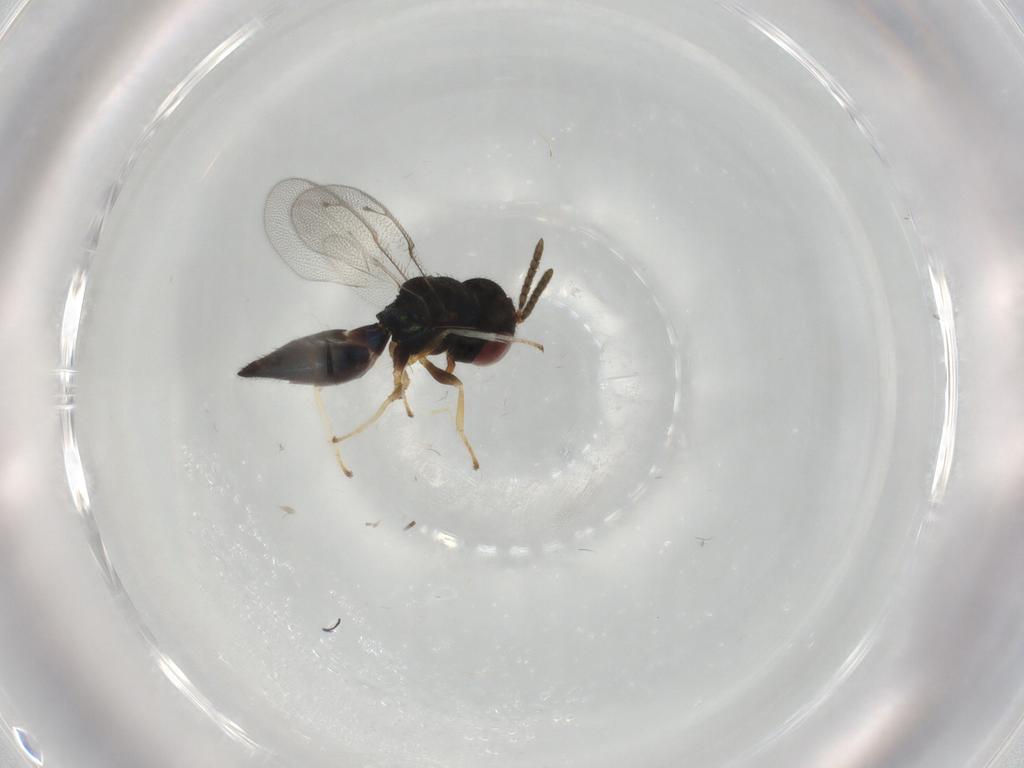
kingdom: Animalia
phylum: Arthropoda
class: Insecta
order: Hymenoptera
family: Pteromalidae
